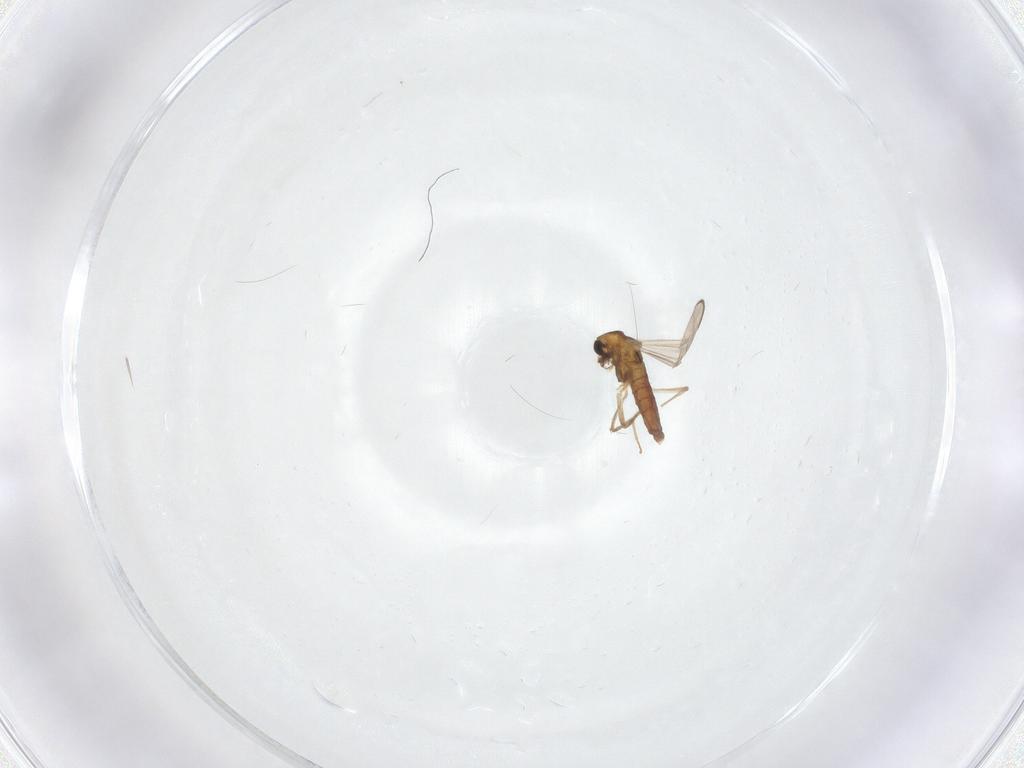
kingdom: Animalia
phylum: Arthropoda
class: Insecta
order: Diptera
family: Chironomidae
